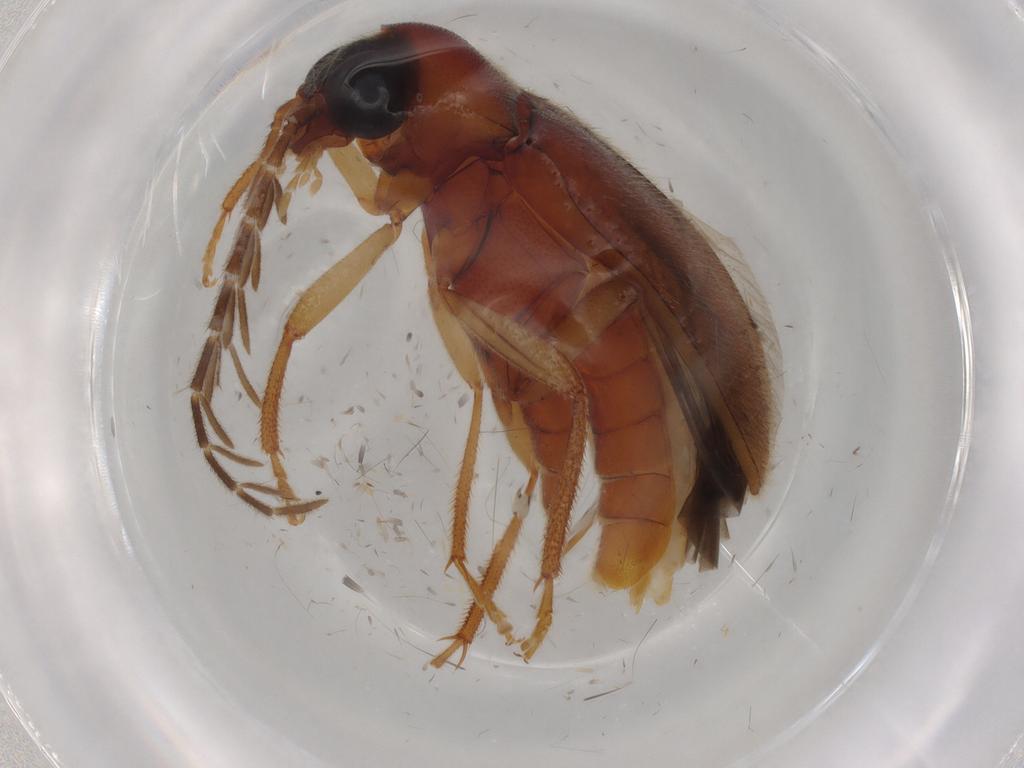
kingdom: Animalia
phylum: Arthropoda
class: Insecta
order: Coleoptera
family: Ptilodactylidae
